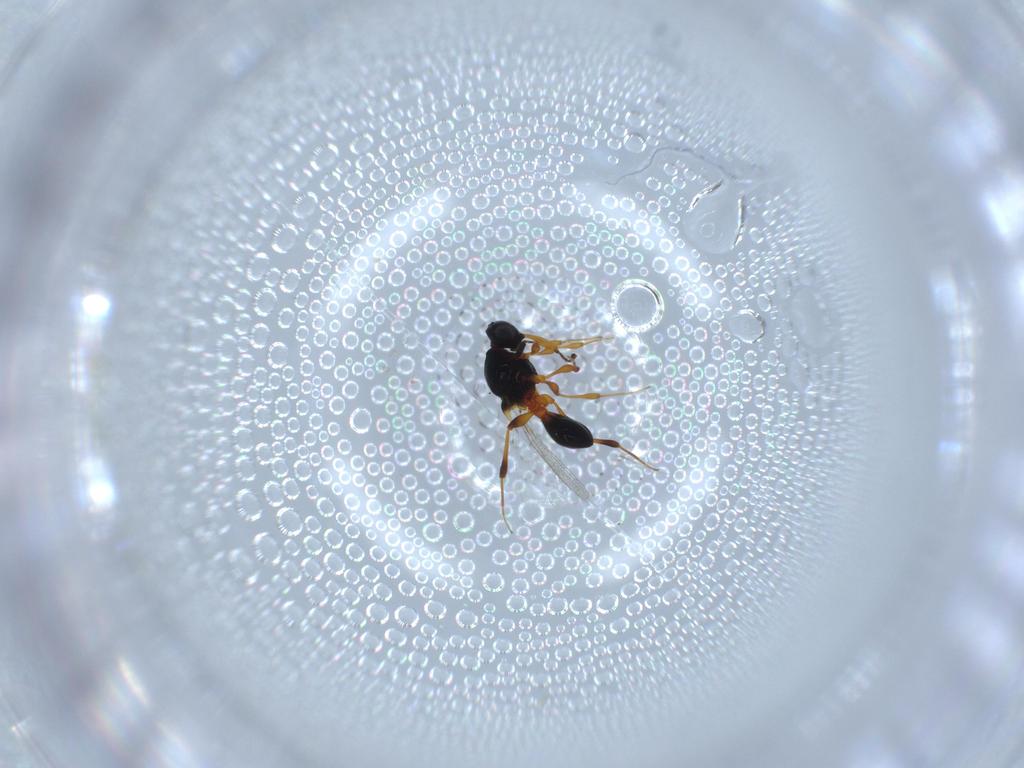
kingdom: Animalia
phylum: Arthropoda
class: Insecta
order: Hymenoptera
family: Platygastridae
